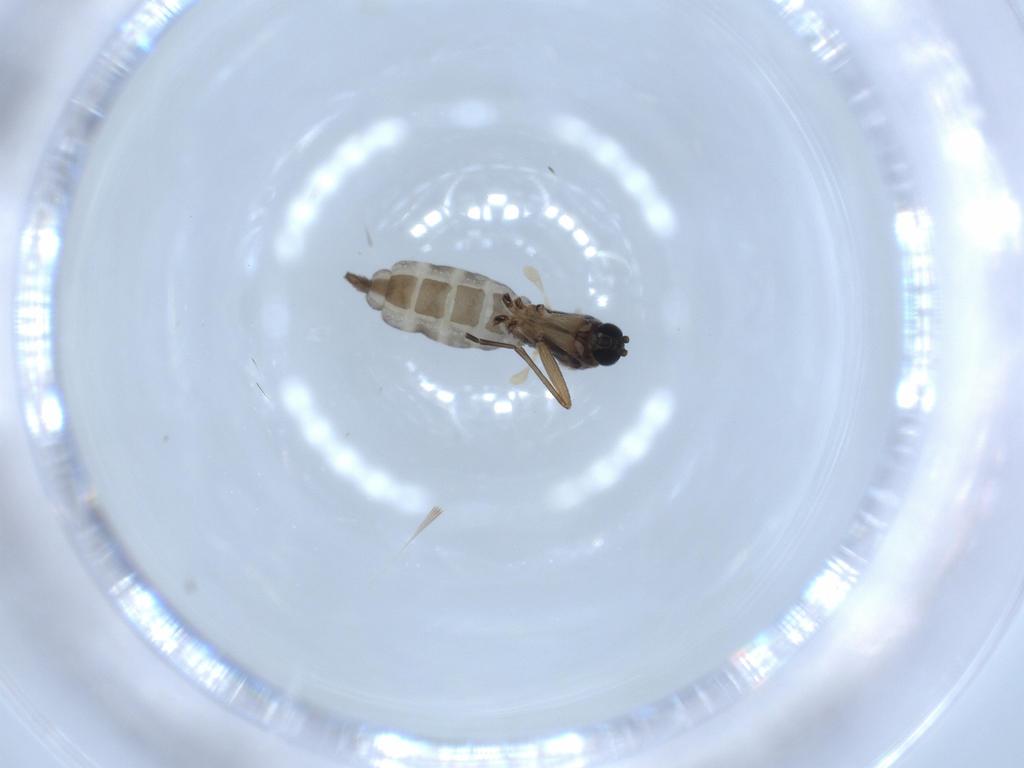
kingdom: Animalia
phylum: Arthropoda
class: Insecta
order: Diptera
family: Sciaridae
